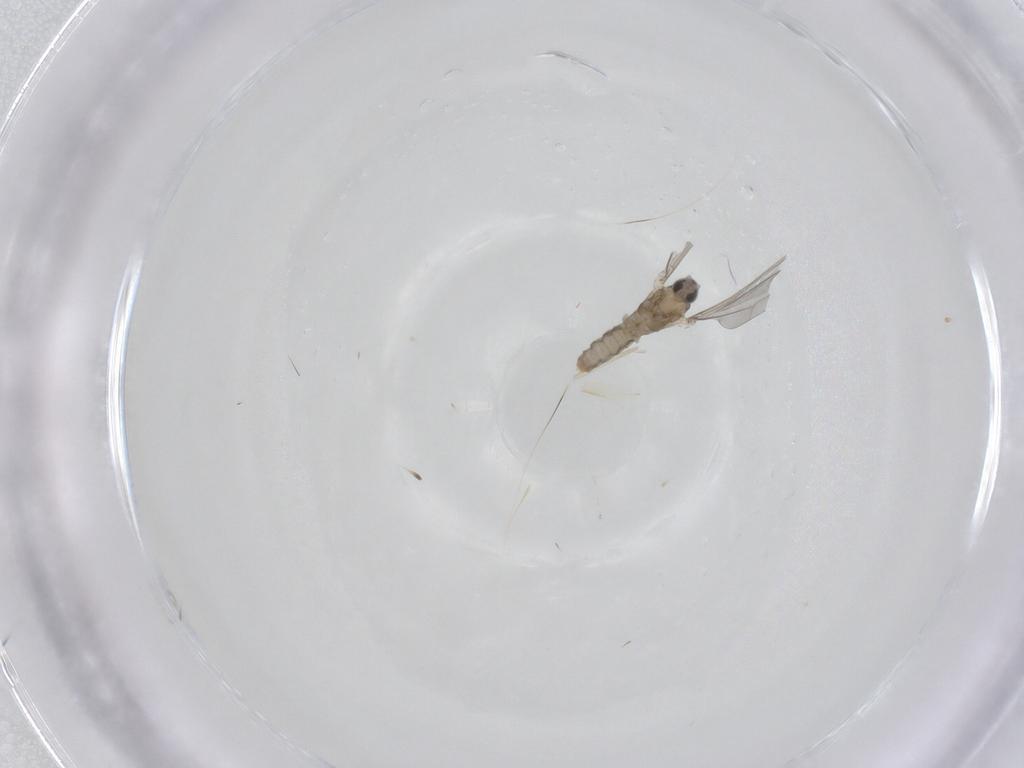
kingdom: Animalia
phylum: Arthropoda
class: Insecta
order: Diptera
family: Cecidomyiidae
